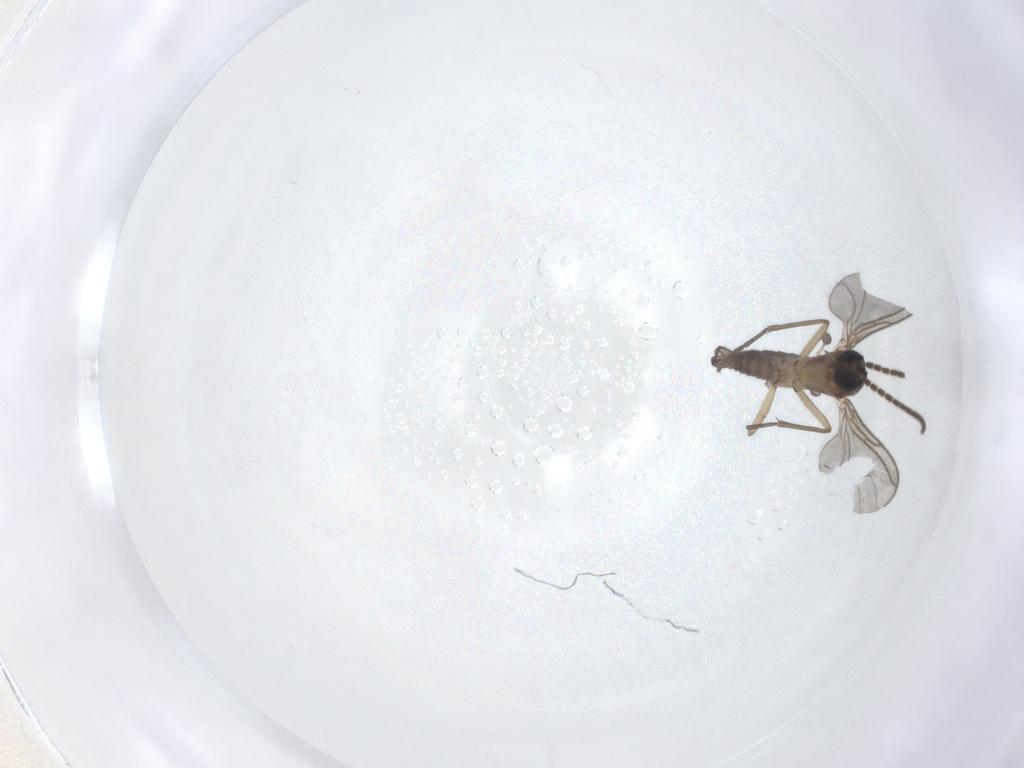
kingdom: Animalia
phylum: Arthropoda
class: Insecta
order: Diptera
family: Sciaridae
